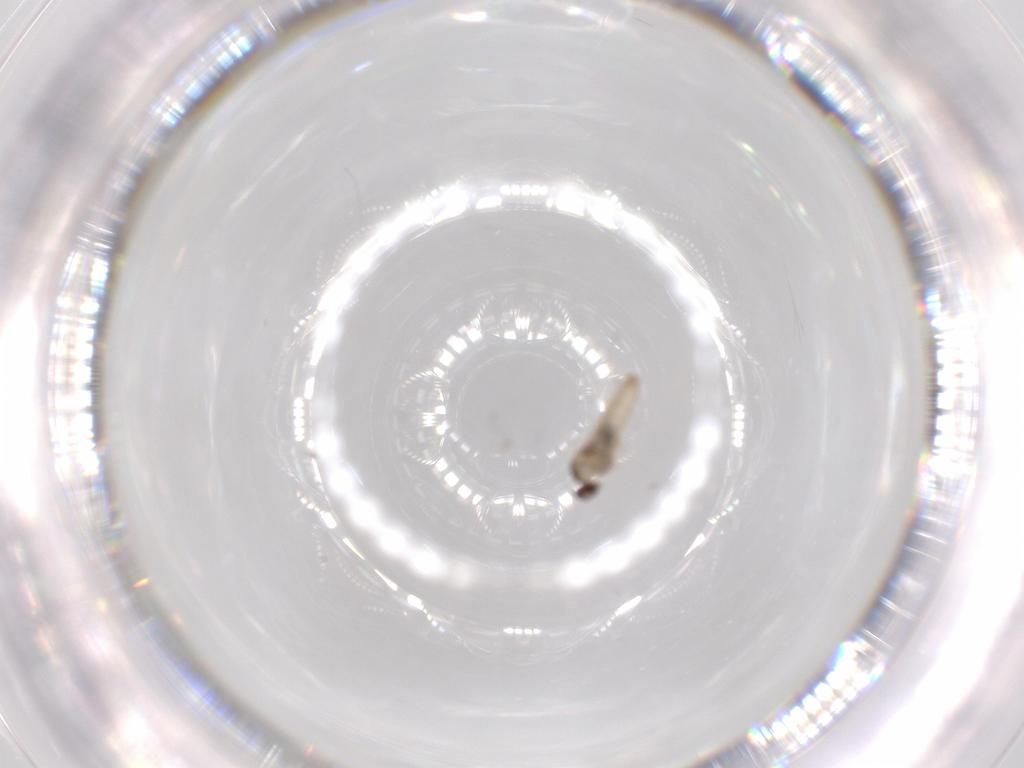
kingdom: Animalia
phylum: Arthropoda
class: Insecta
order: Diptera
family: Cecidomyiidae
